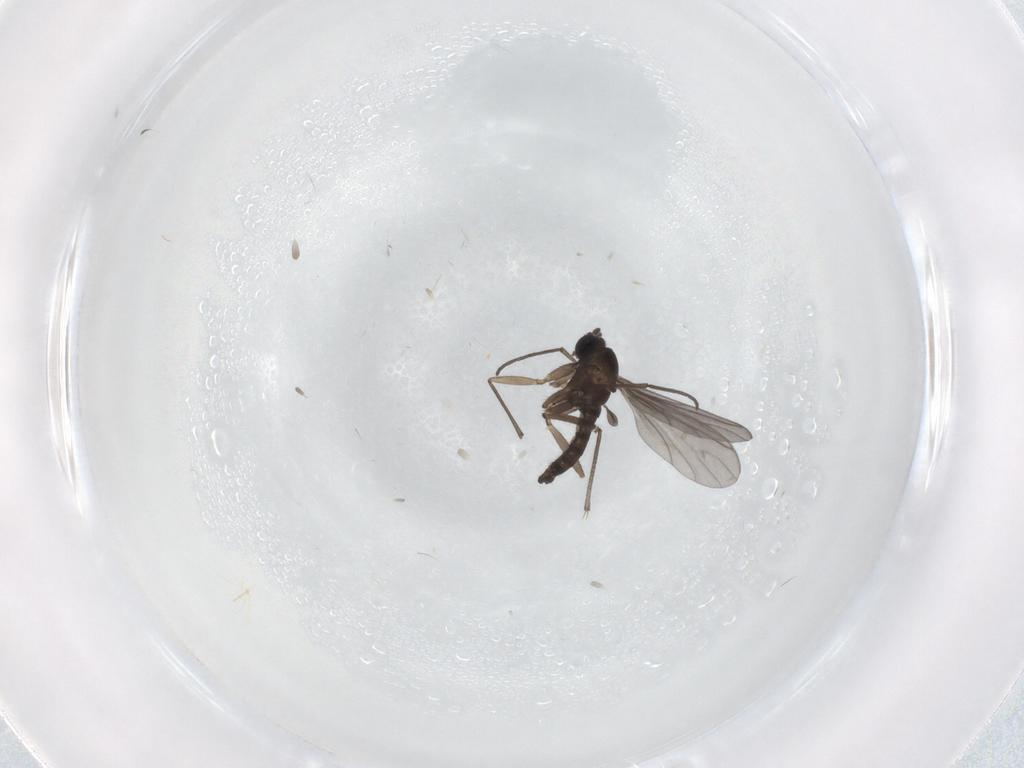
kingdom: Animalia
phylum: Arthropoda
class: Insecta
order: Diptera
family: Sciaridae
